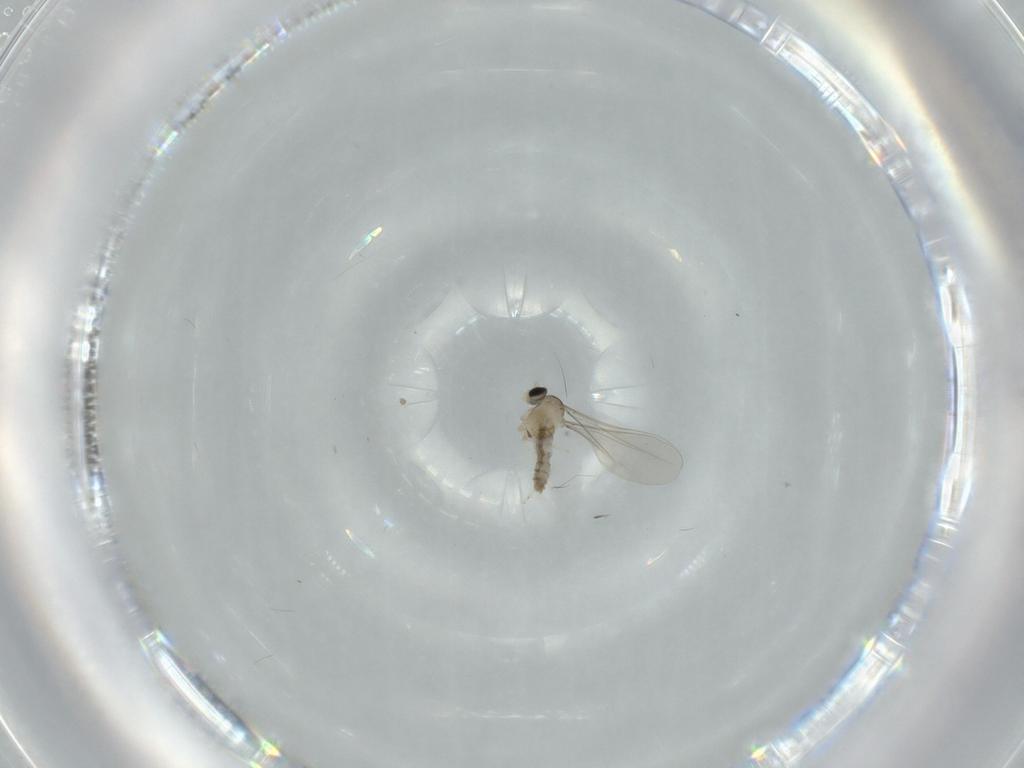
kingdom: Animalia
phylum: Arthropoda
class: Insecta
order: Diptera
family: Cecidomyiidae
